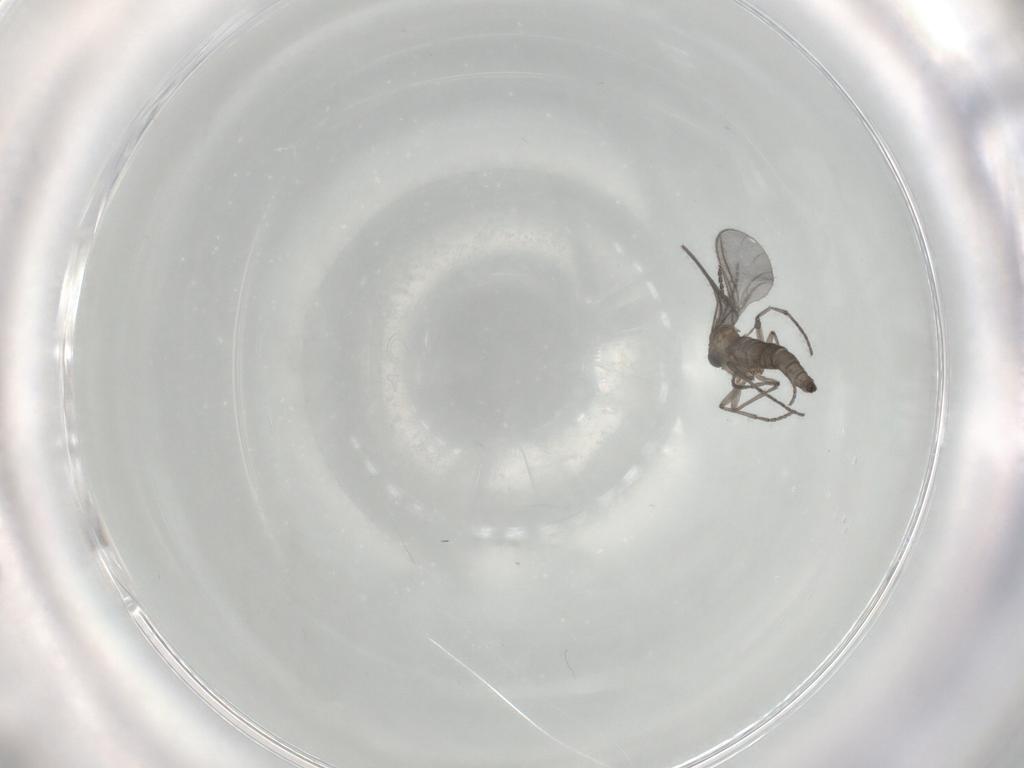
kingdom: Animalia
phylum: Arthropoda
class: Insecta
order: Diptera
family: Sciaridae
